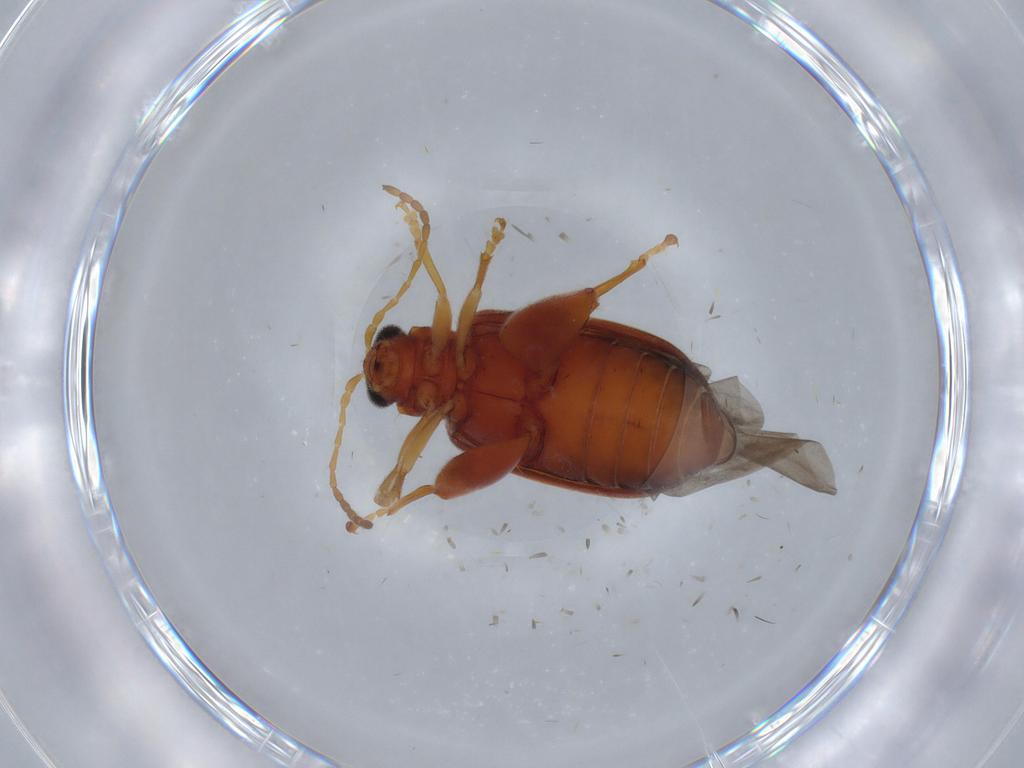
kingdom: Animalia
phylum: Arthropoda
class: Insecta
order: Coleoptera
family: Chrysomelidae
